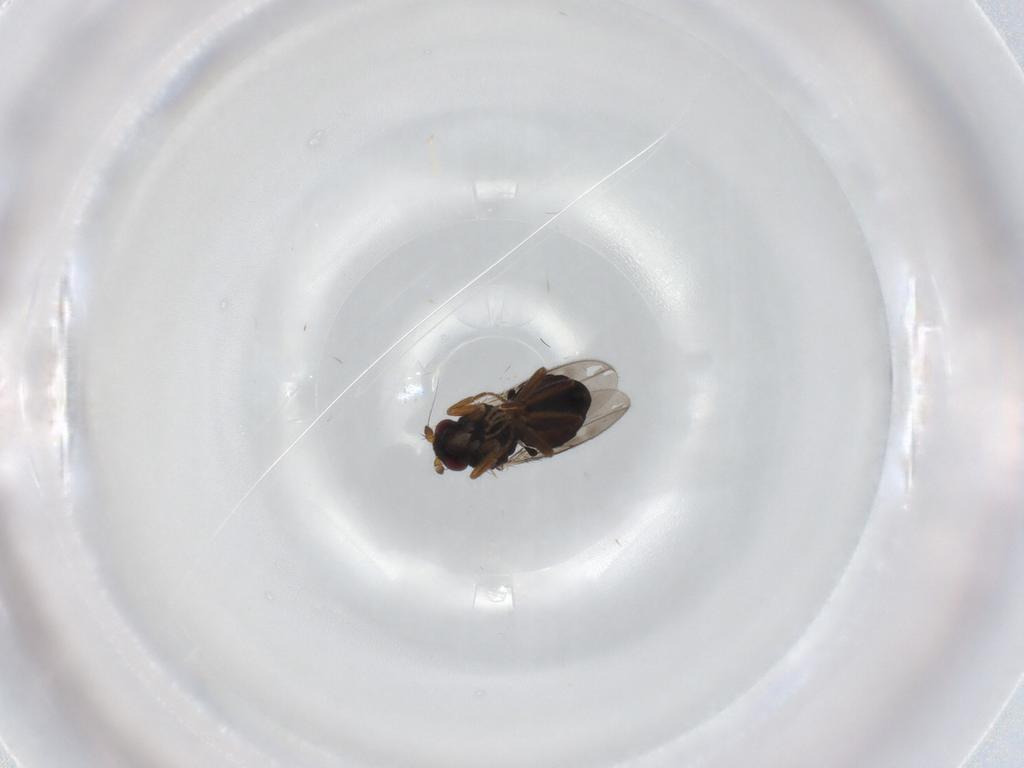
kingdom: Animalia
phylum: Arthropoda
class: Insecta
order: Diptera
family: Sphaeroceridae
